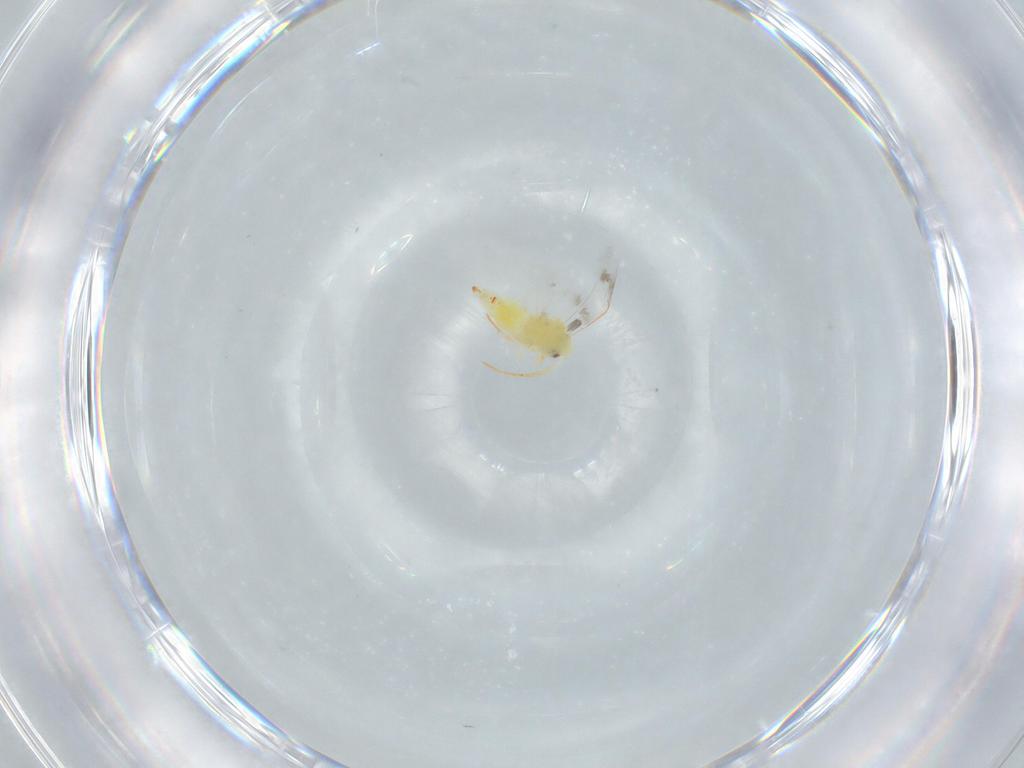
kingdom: Animalia
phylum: Arthropoda
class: Insecta
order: Hemiptera
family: Aleyrodidae
